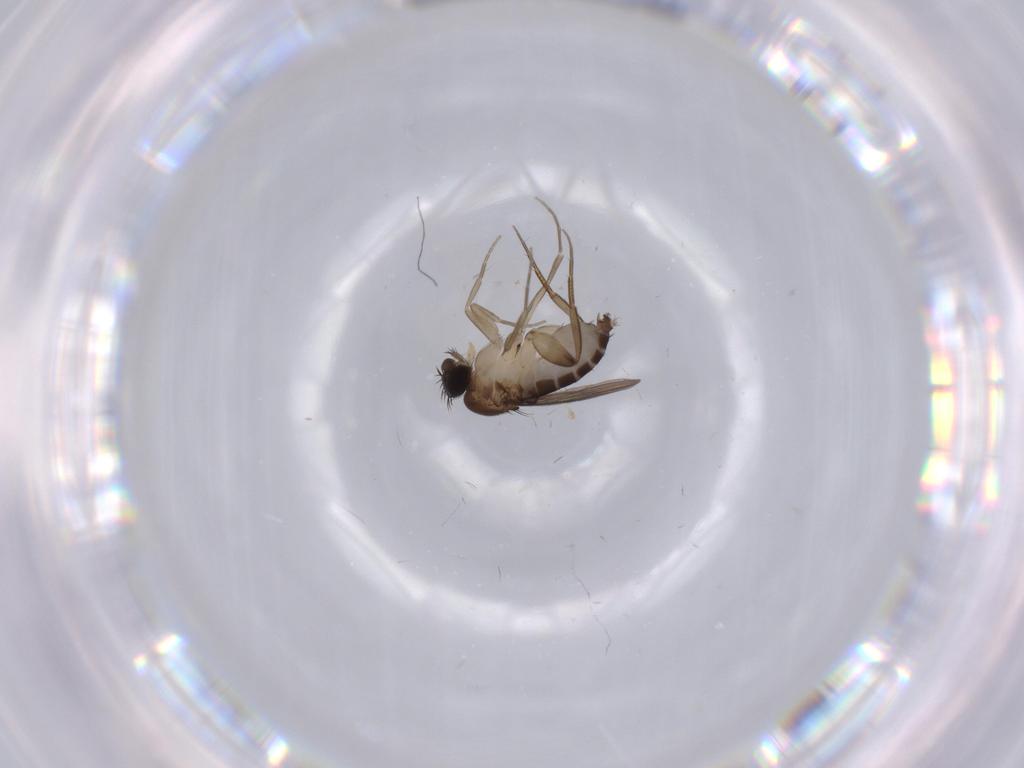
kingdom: Animalia
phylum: Arthropoda
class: Insecta
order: Diptera
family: Phoridae
